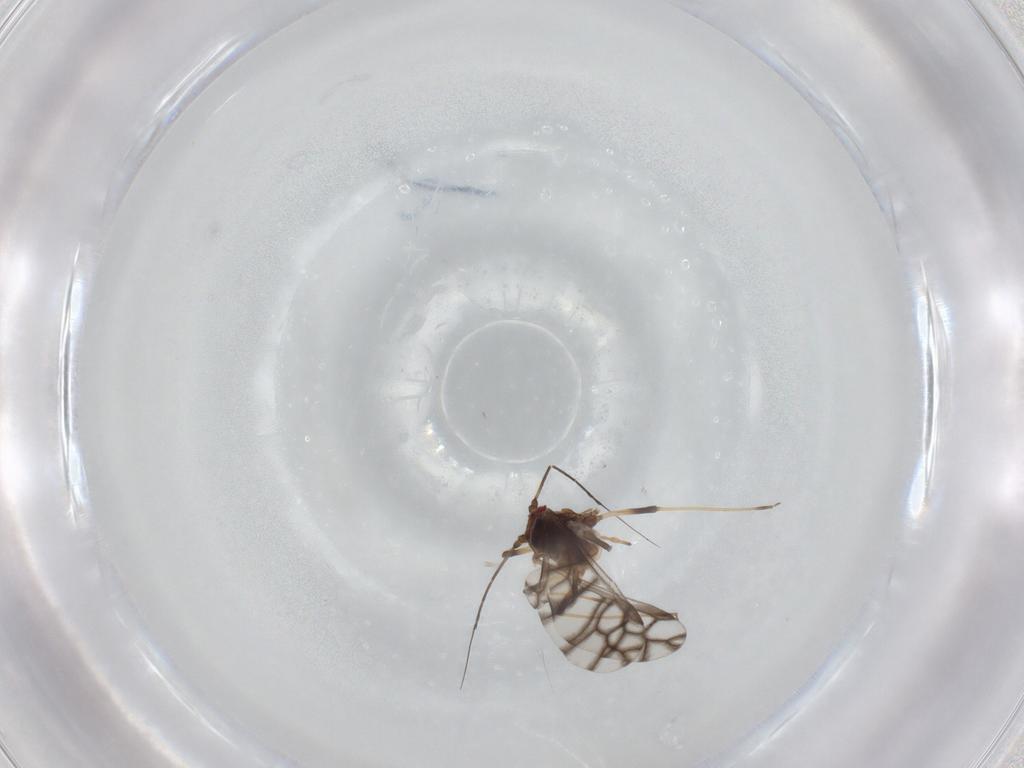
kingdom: Animalia
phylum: Arthropoda
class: Insecta
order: Hemiptera
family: Aphididae
